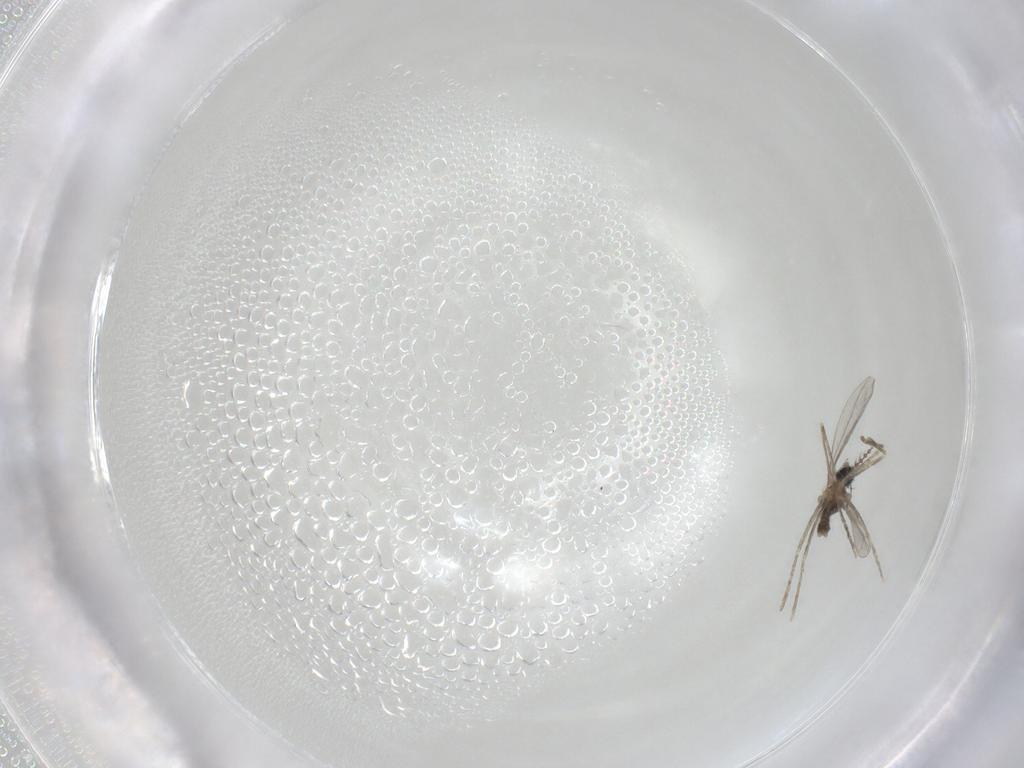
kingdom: Animalia
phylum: Arthropoda
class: Insecta
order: Diptera
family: Cecidomyiidae
